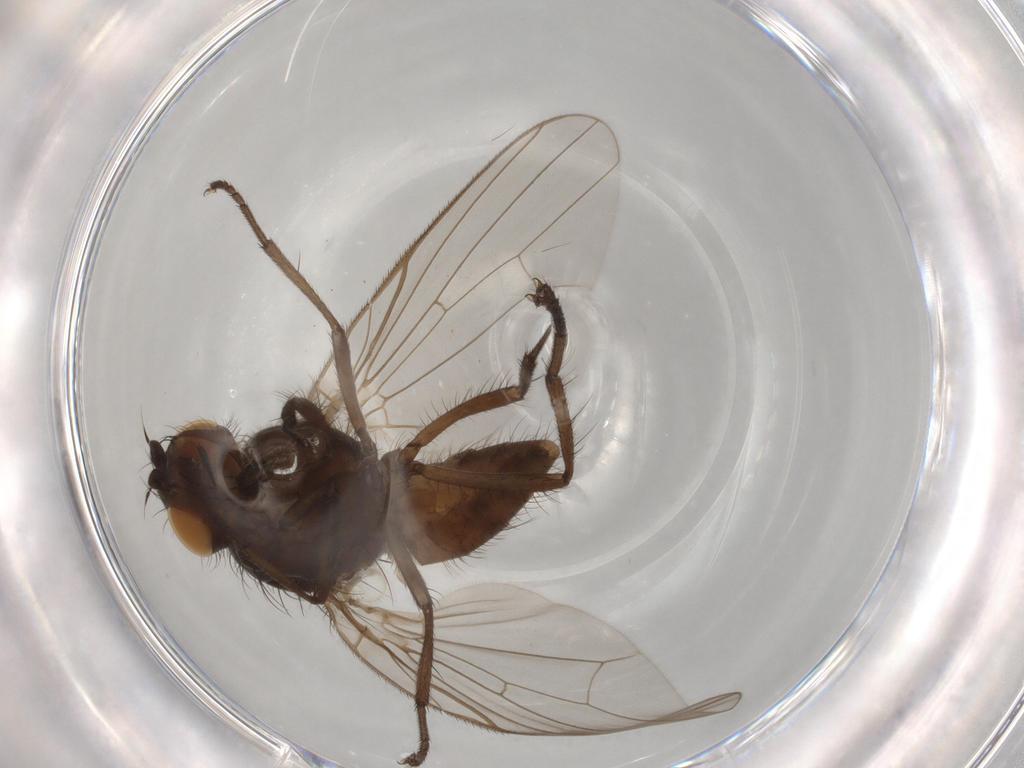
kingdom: Animalia
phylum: Arthropoda
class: Insecta
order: Diptera
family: Anthomyiidae
